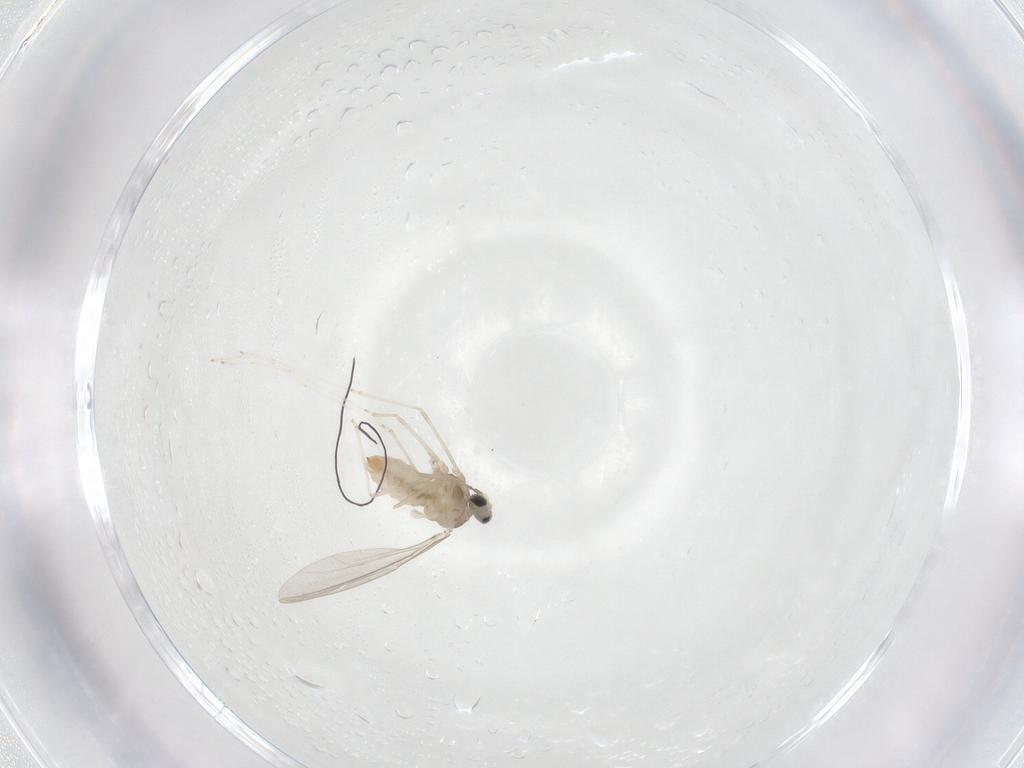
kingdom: Animalia
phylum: Arthropoda
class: Insecta
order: Diptera
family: Cecidomyiidae
